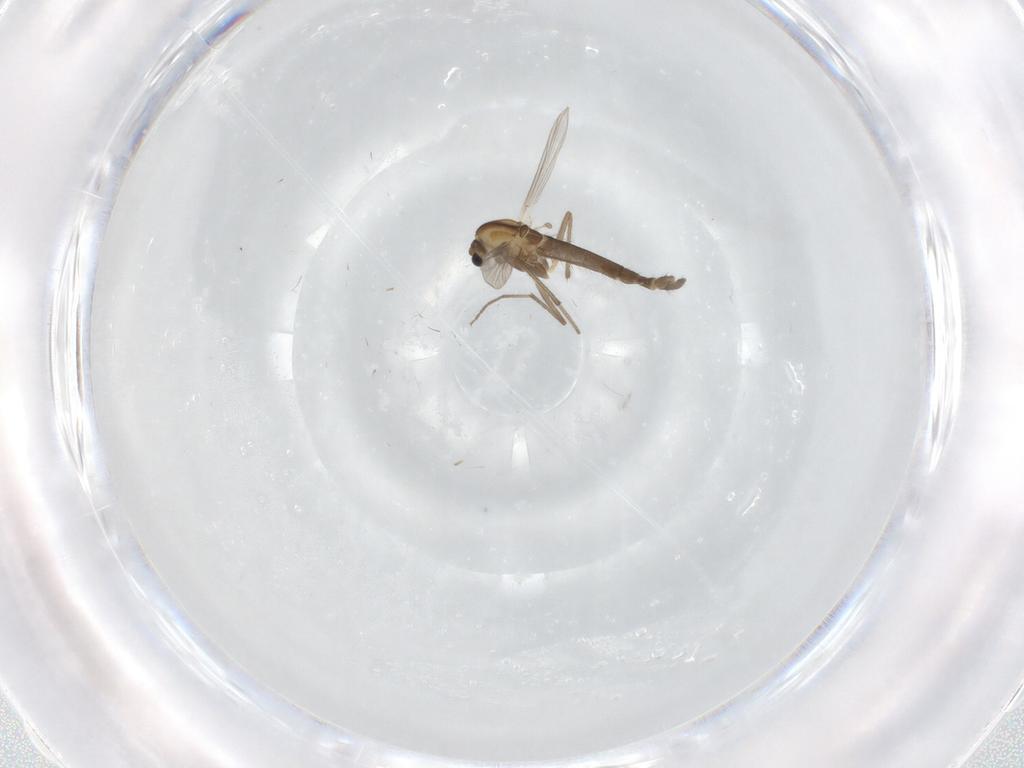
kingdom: Animalia
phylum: Arthropoda
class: Insecta
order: Diptera
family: Chironomidae
